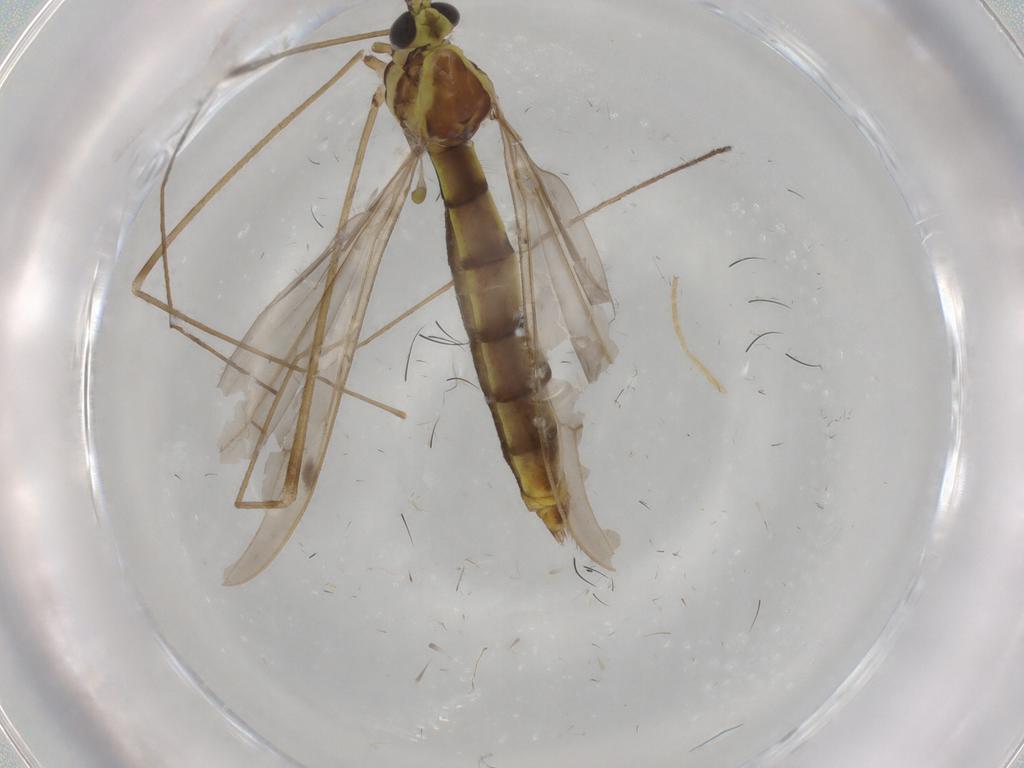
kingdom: Animalia
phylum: Arthropoda
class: Insecta
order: Diptera
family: Limoniidae
